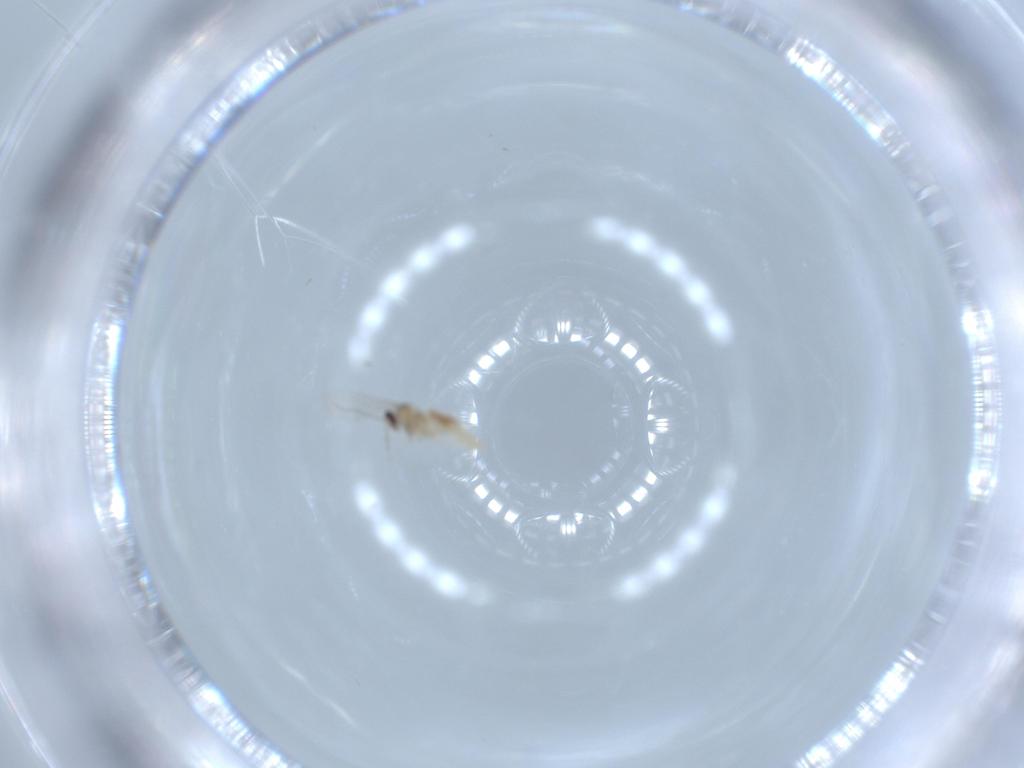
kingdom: Animalia
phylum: Arthropoda
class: Insecta
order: Diptera
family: Cecidomyiidae
